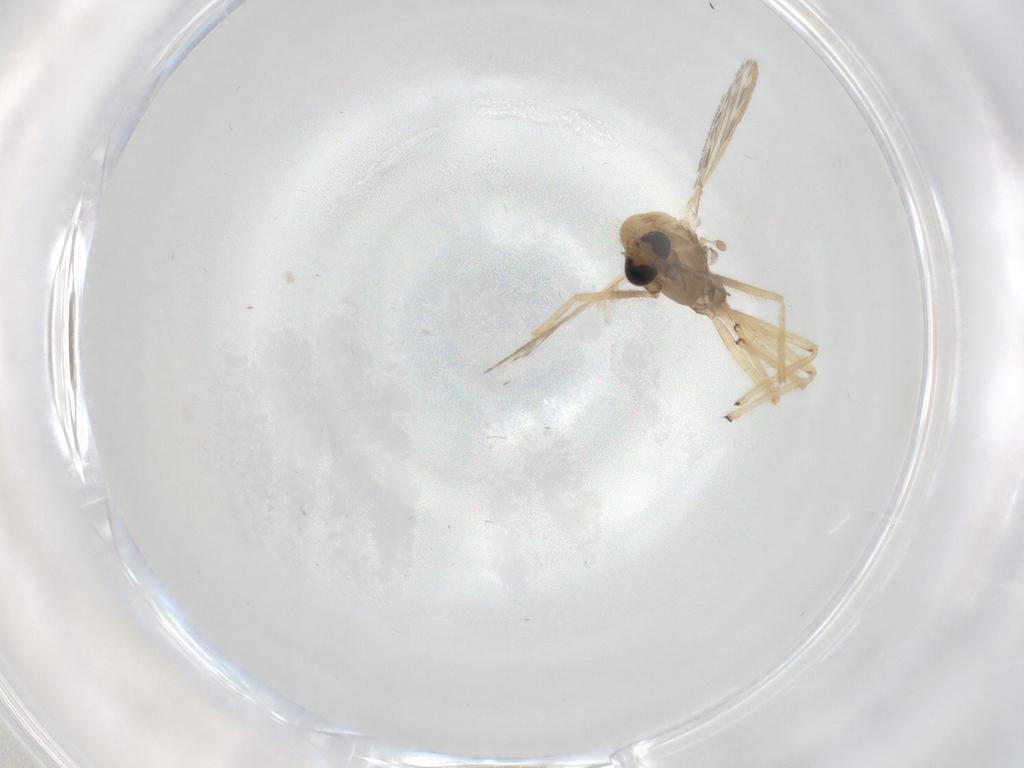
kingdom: Animalia
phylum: Arthropoda
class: Insecta
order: Diptera
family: Chironomidae
